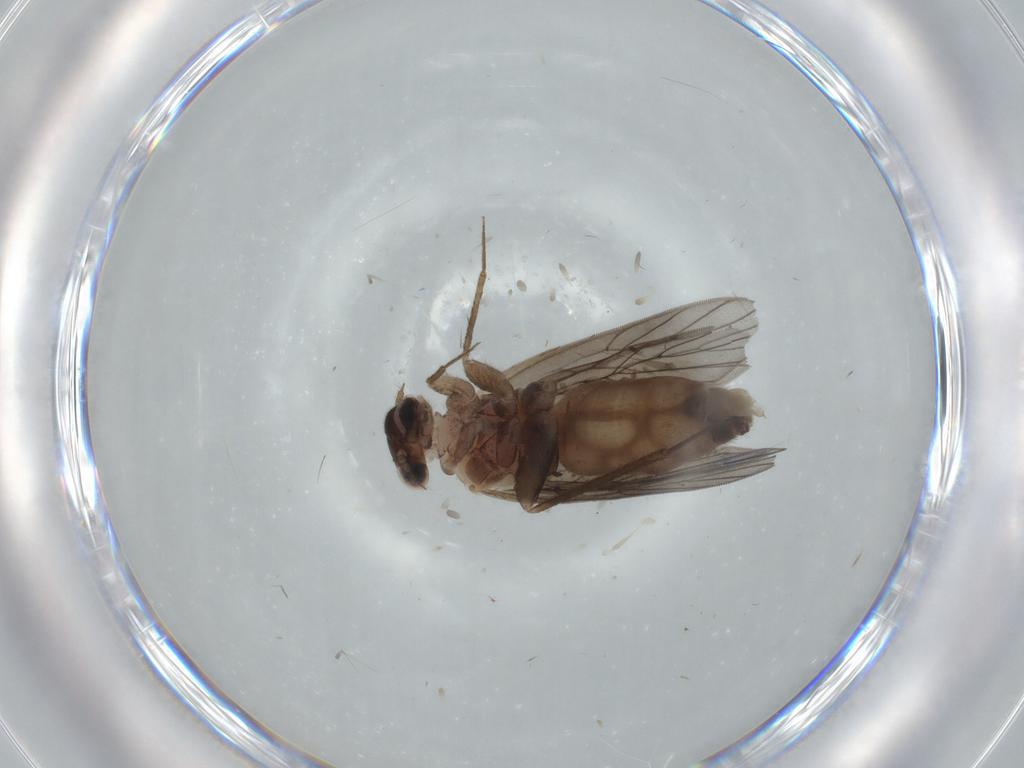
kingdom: Animalia
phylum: Arthropoda
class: Insecta
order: Psocodea
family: Lepidopsocidae
